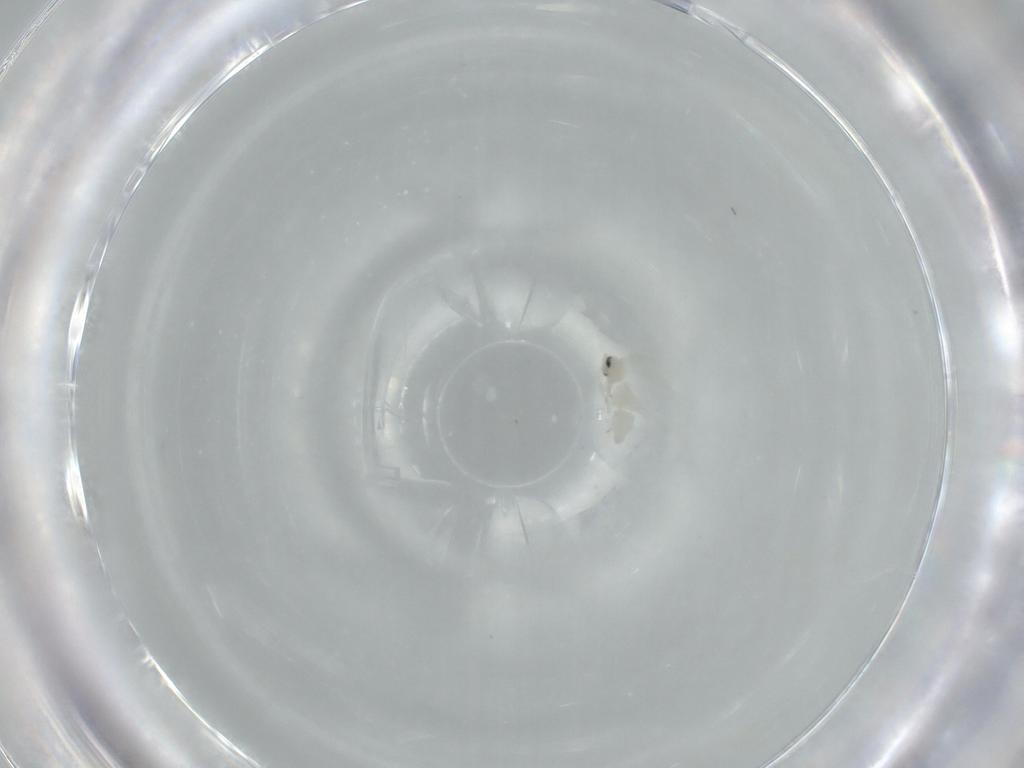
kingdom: Animalia
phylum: Arthropoda
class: Insecta
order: Hemiptera
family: Aleyrodidae
